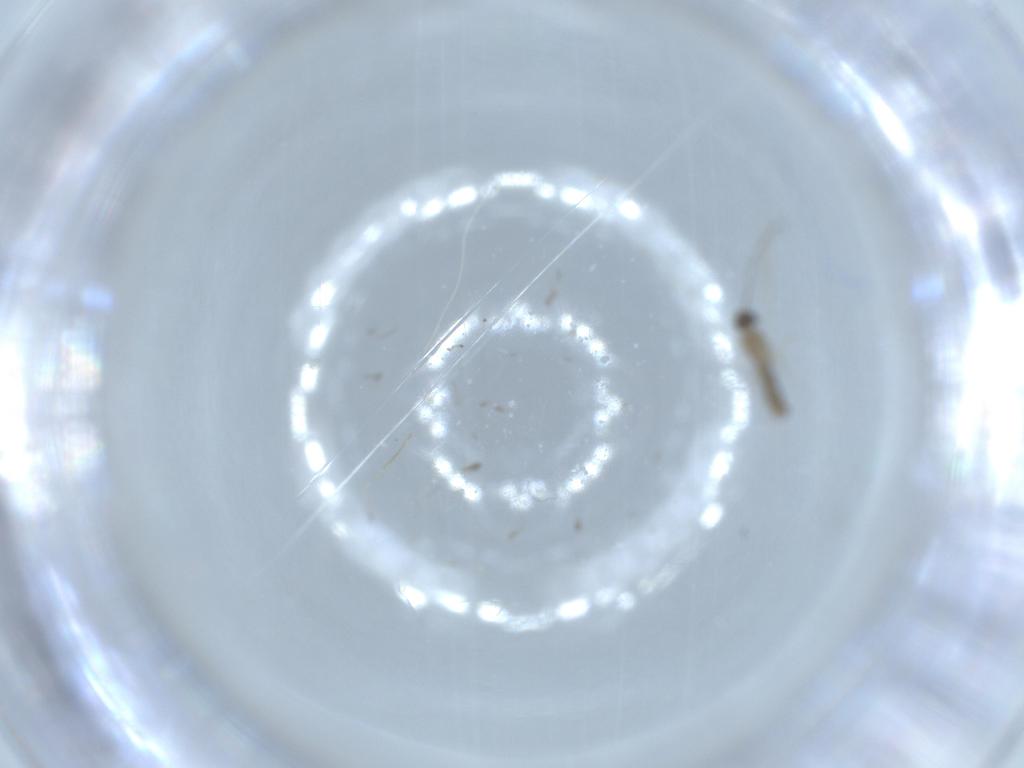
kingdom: Animalia
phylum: Arthropoda
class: Insecta
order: Diptera
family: Cecidomyiidae
